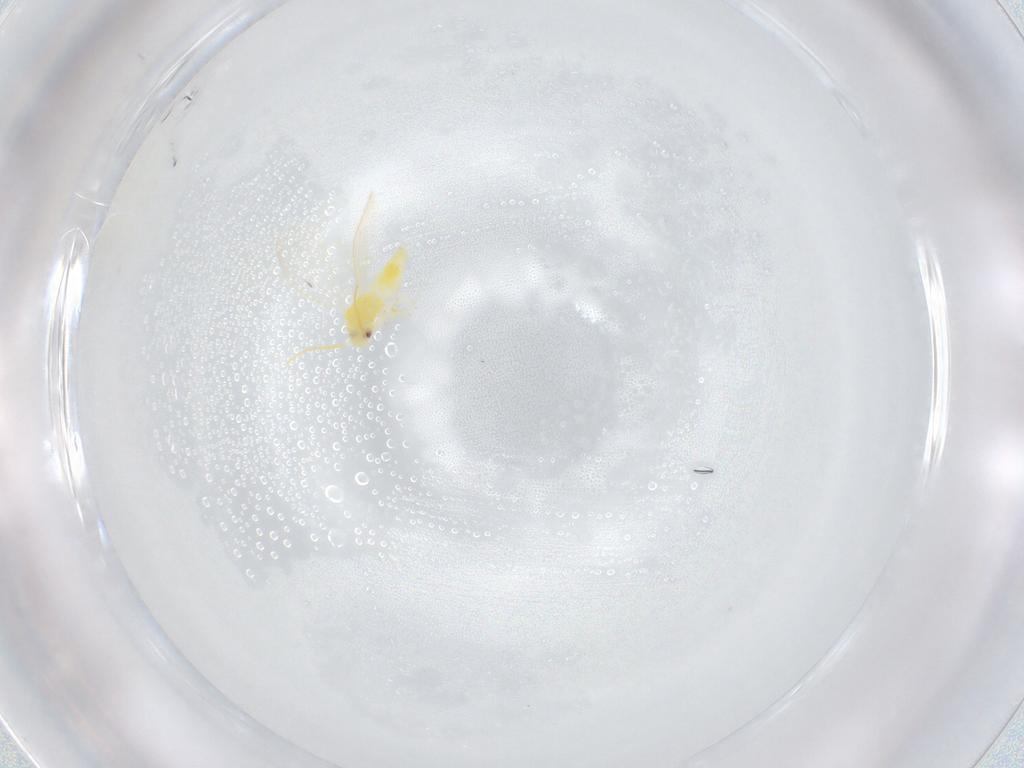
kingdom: Animalia
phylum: Arthropoda
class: Insecta
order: Hemiptera
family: Aleyrodidae
